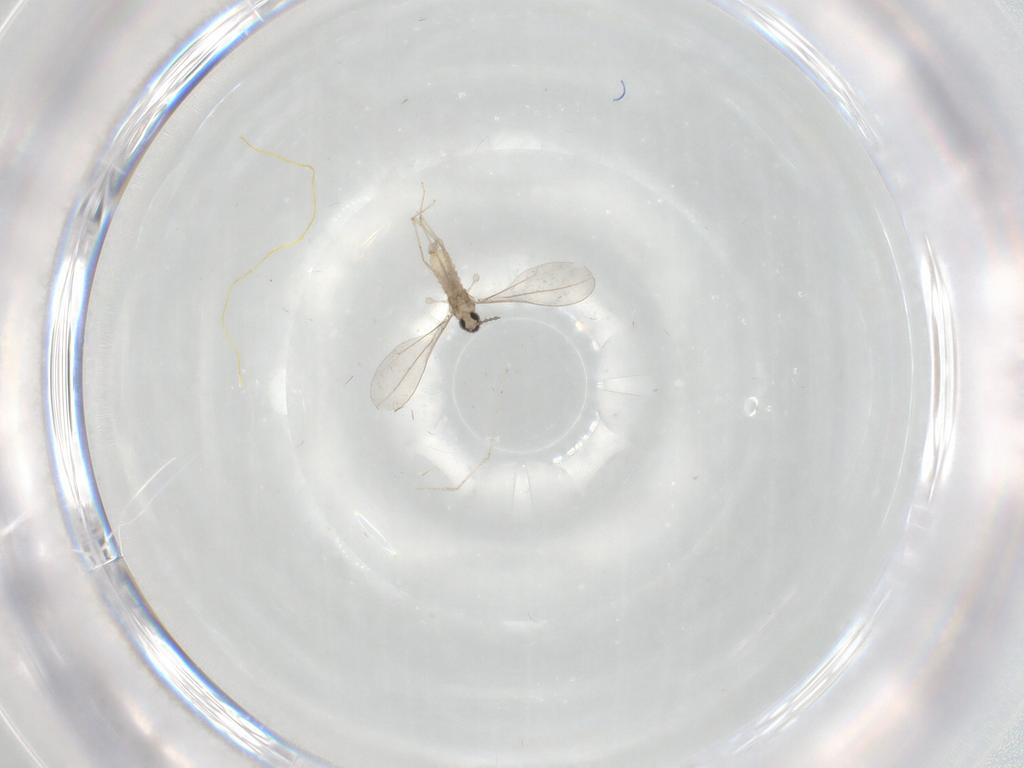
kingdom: Animalia
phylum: Arthropoda
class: Insecta
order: Diptera
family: Cecidomyiidae
